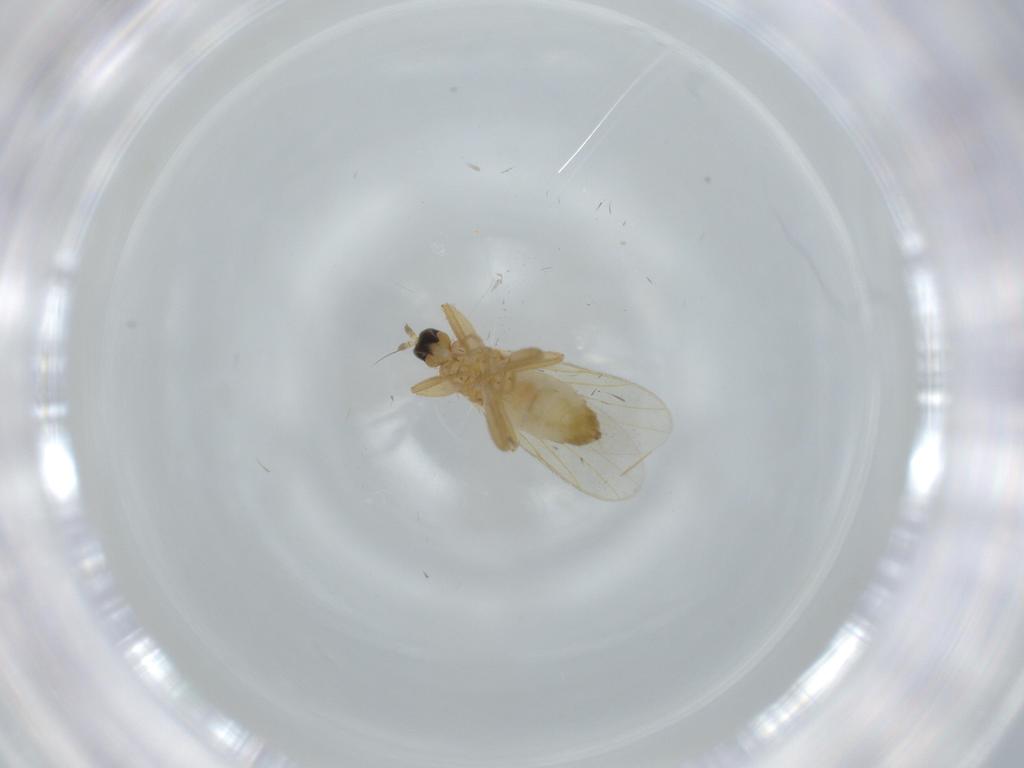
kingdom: Animalia
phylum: Arthropoda
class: Insecta
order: Diptera
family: Hybotidae
